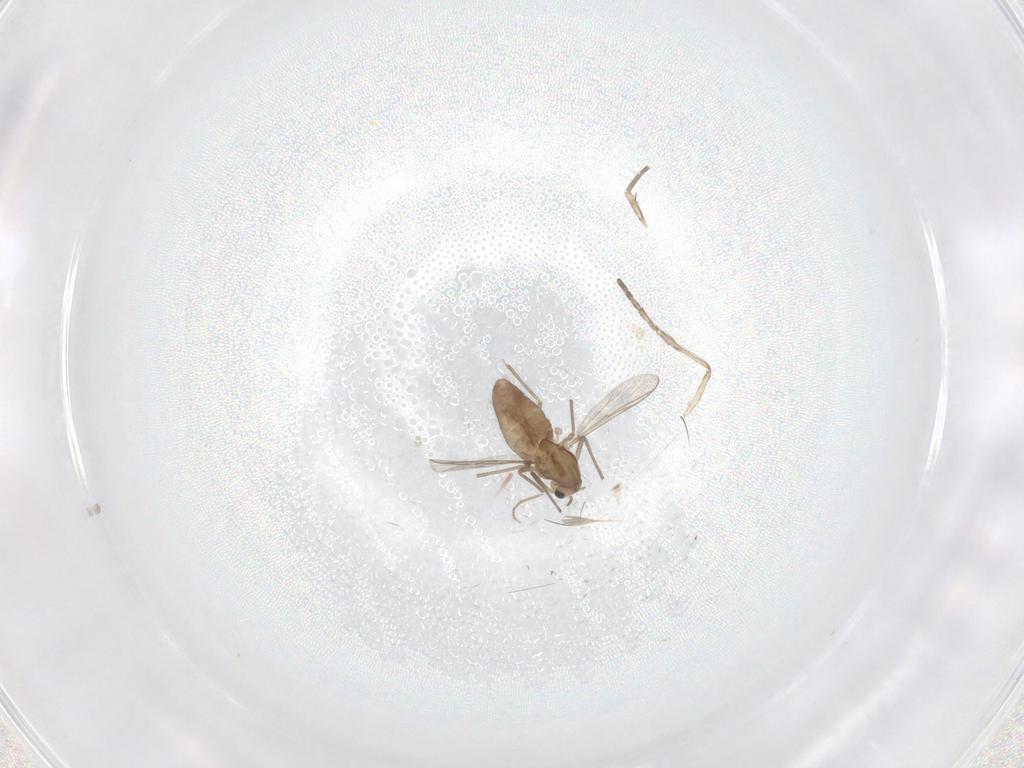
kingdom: Animalia
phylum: Arthropoda
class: Insecta
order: Diptera
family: Chironomidae
